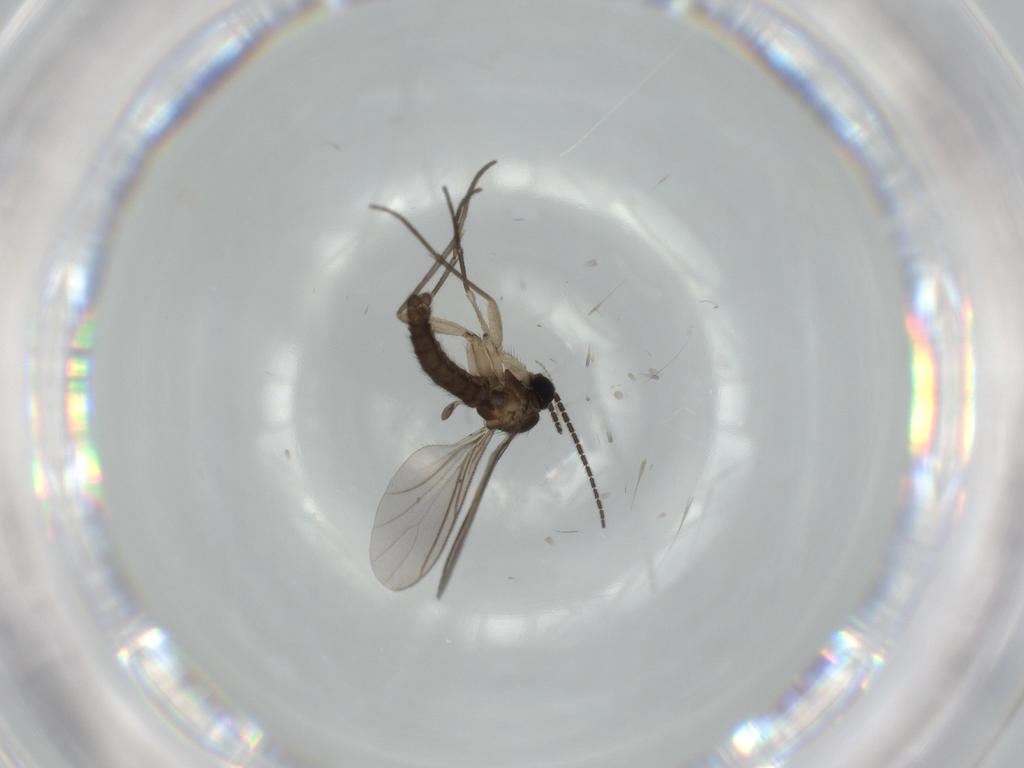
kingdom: Animalia
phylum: Arthropoda
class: Insecta
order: Diptera
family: Sciaridae
